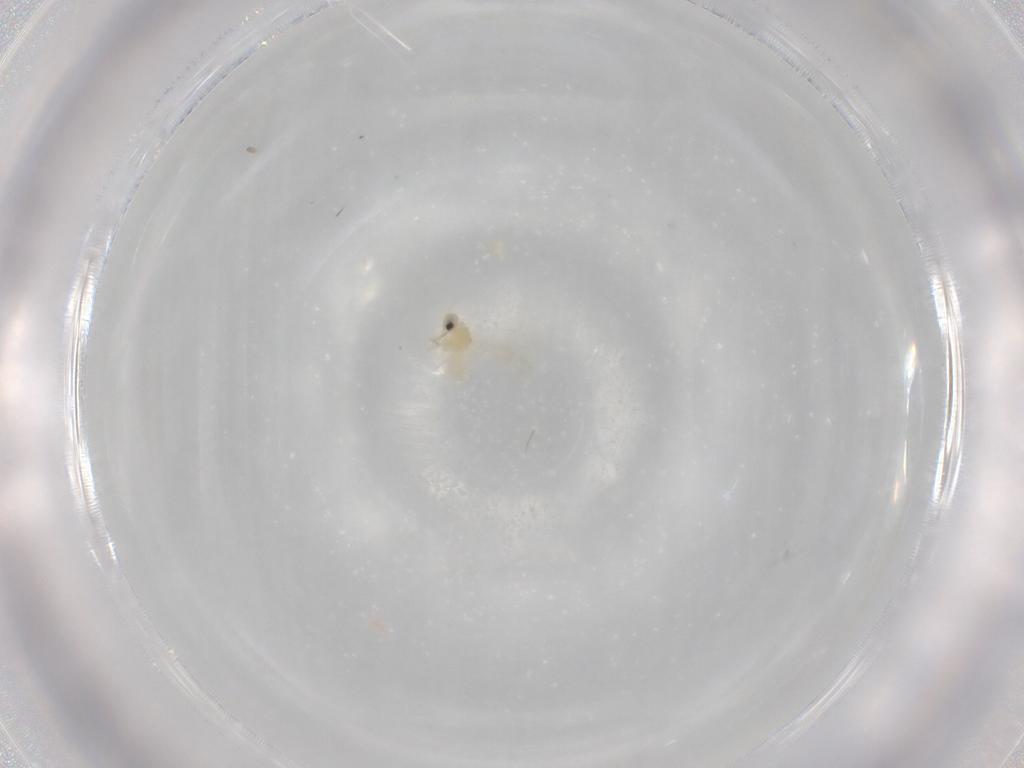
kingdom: Animalia
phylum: Arthropoda
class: Insecta
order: Hemiptera
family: Aleyrodidae
